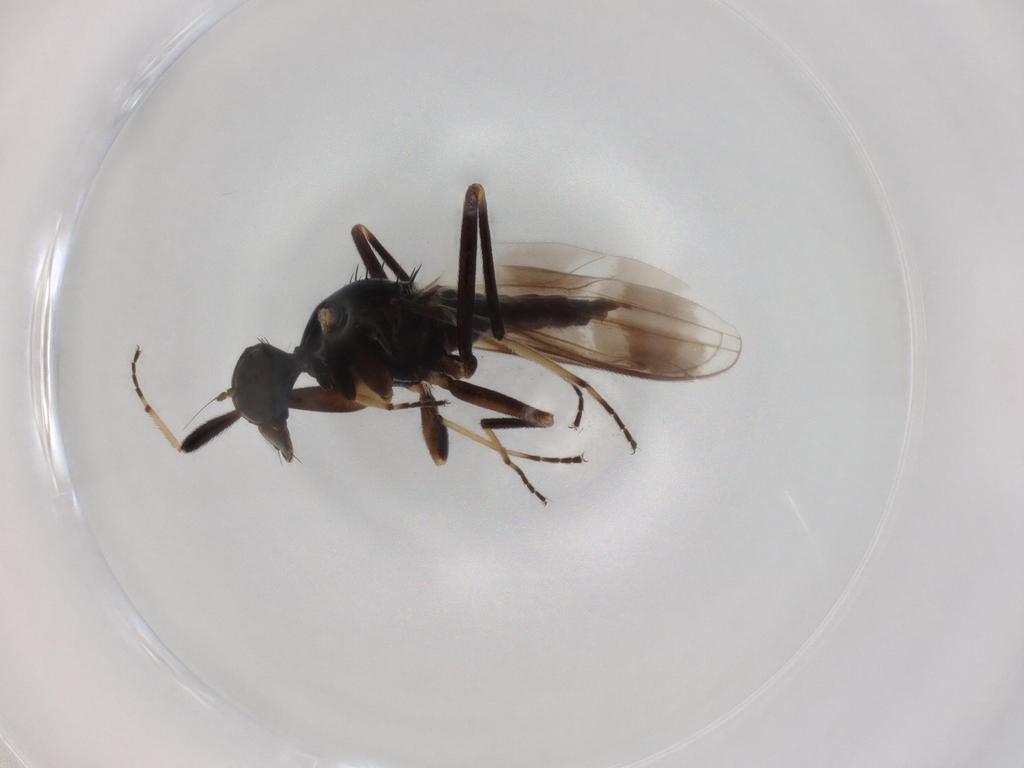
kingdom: Animalia
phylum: Arthropoda
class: Insecta
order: Diptera
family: Hybotidae
